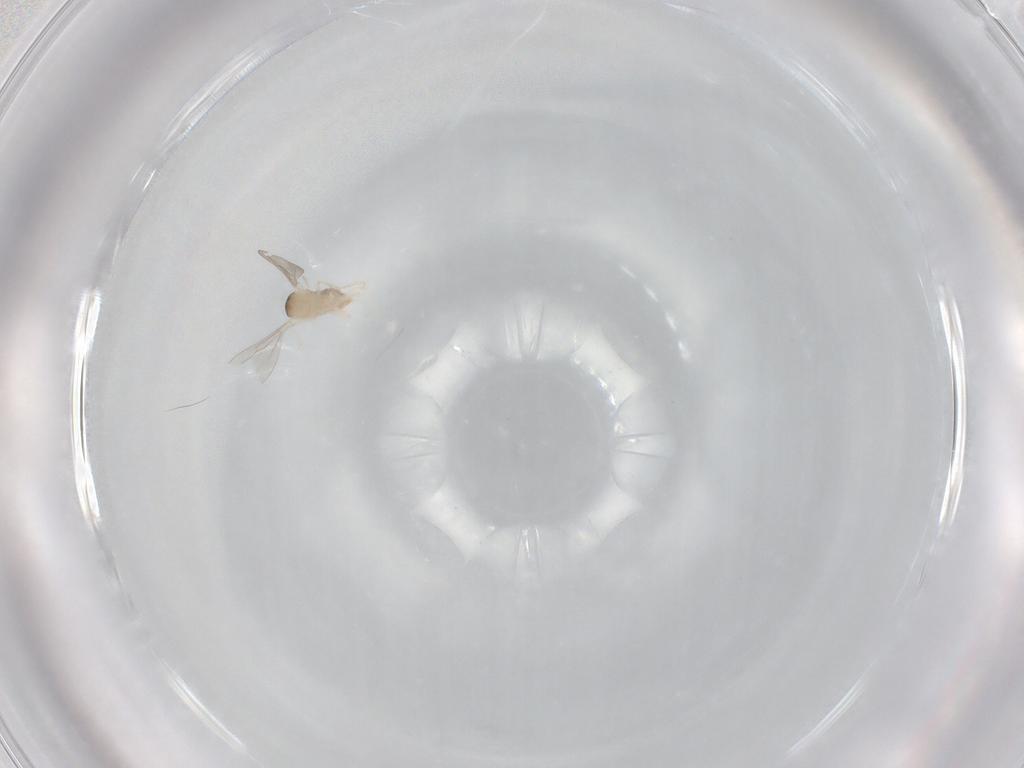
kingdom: Animalia
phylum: Arthropoda
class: Insecta
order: Diptera
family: Cecidomyiidae
